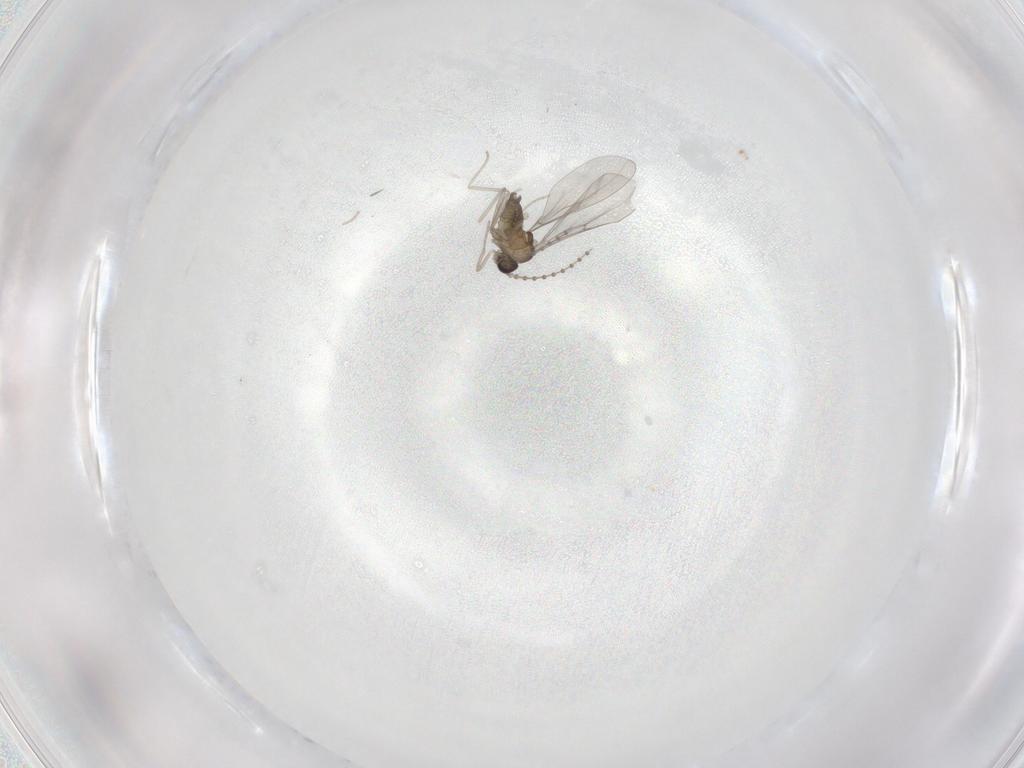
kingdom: Animalia
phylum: Arthropoda
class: Insecta
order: Diptera
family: Cecidomyiidae
